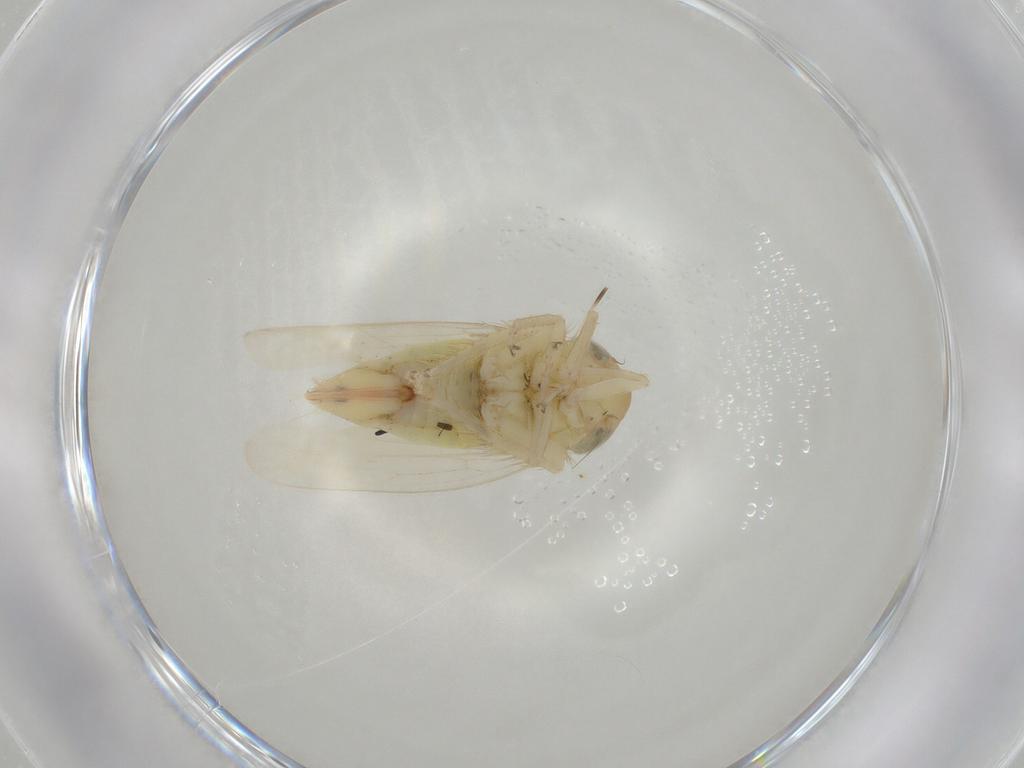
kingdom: Animalia
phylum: Arthropoda
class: Insecta
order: Hemiptera
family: Cicadellidae
